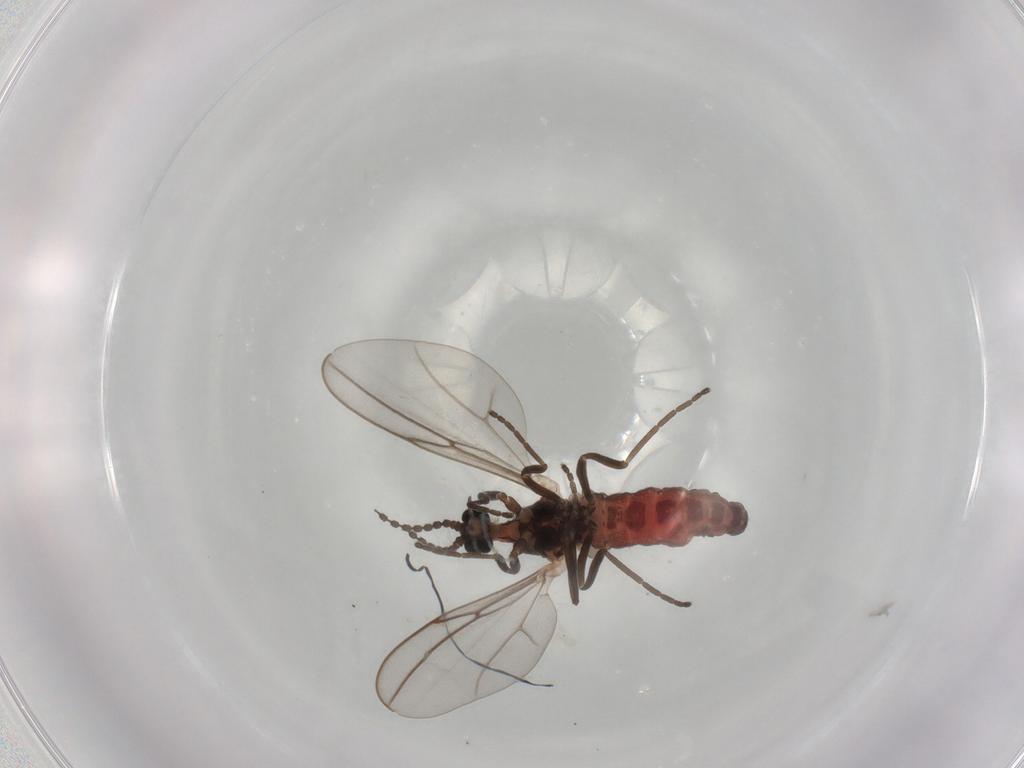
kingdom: Animalia
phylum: Arthropoda
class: Insecta
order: Diptera
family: Cecidomyiidae
